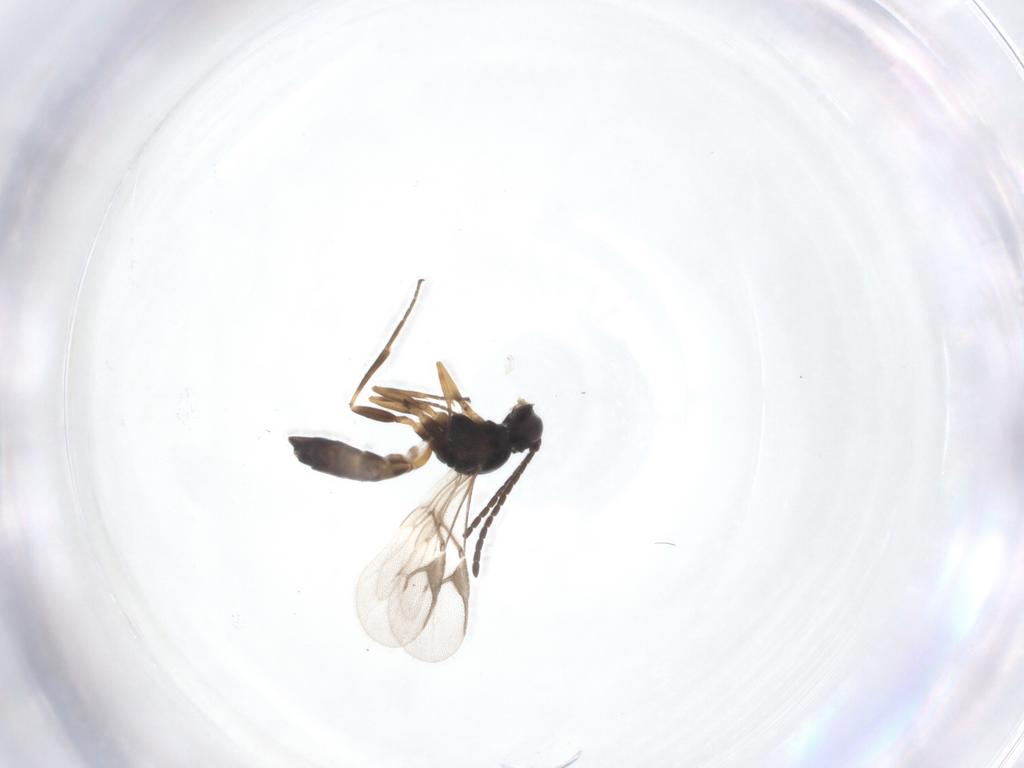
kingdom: Animalia
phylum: Arthropoda
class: Insecta
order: Hymenoptera
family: Braconidae
